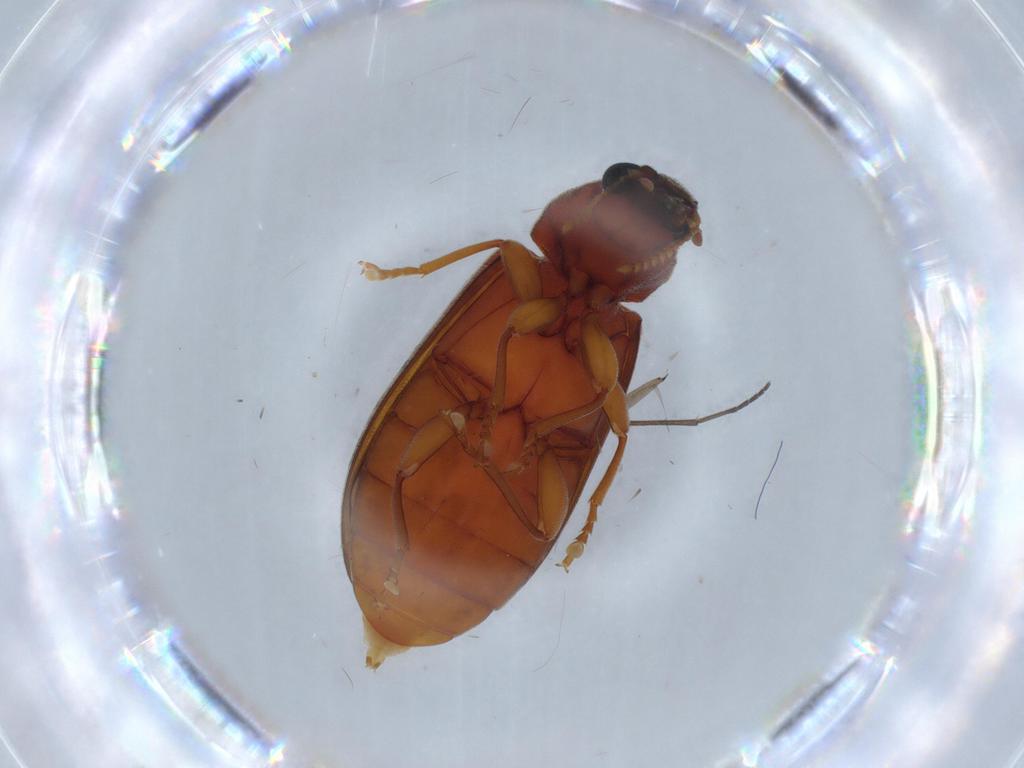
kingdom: Animalia
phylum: Arthropoda
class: Insecta
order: Coleoptera
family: Mycteridae
